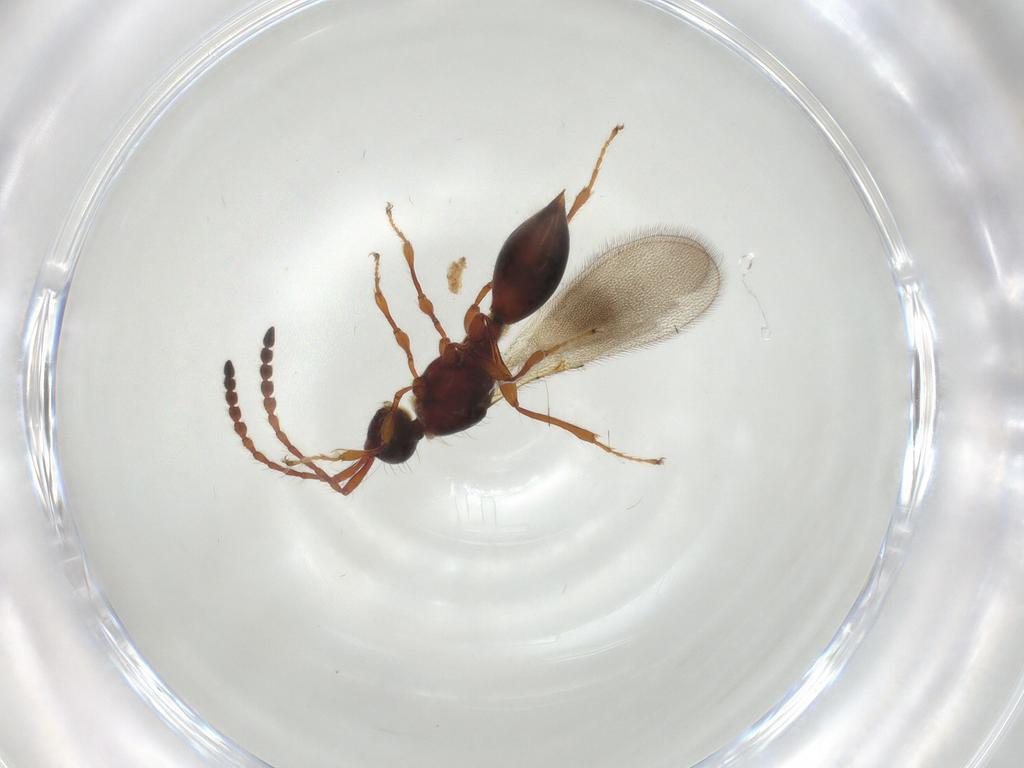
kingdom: Animalia
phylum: Arthropoda
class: Insecta
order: Hymenoptera
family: Diapriidae
